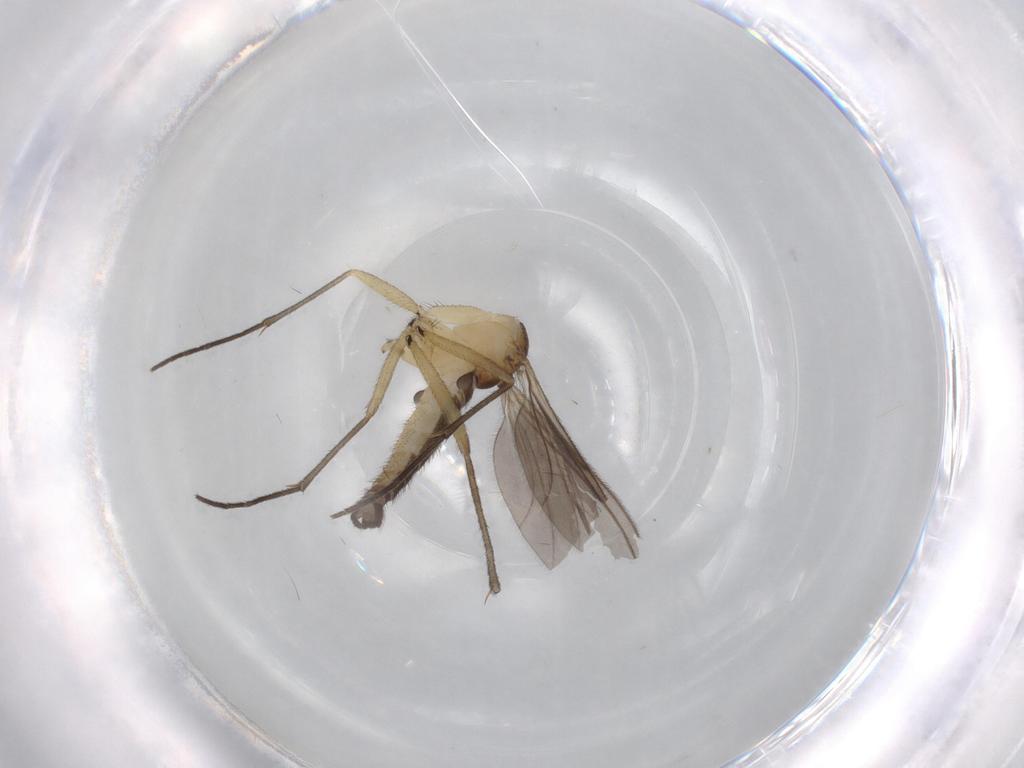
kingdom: Animalia
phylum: Arthropoda
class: Insecta
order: Diptera
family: Sciaridae
